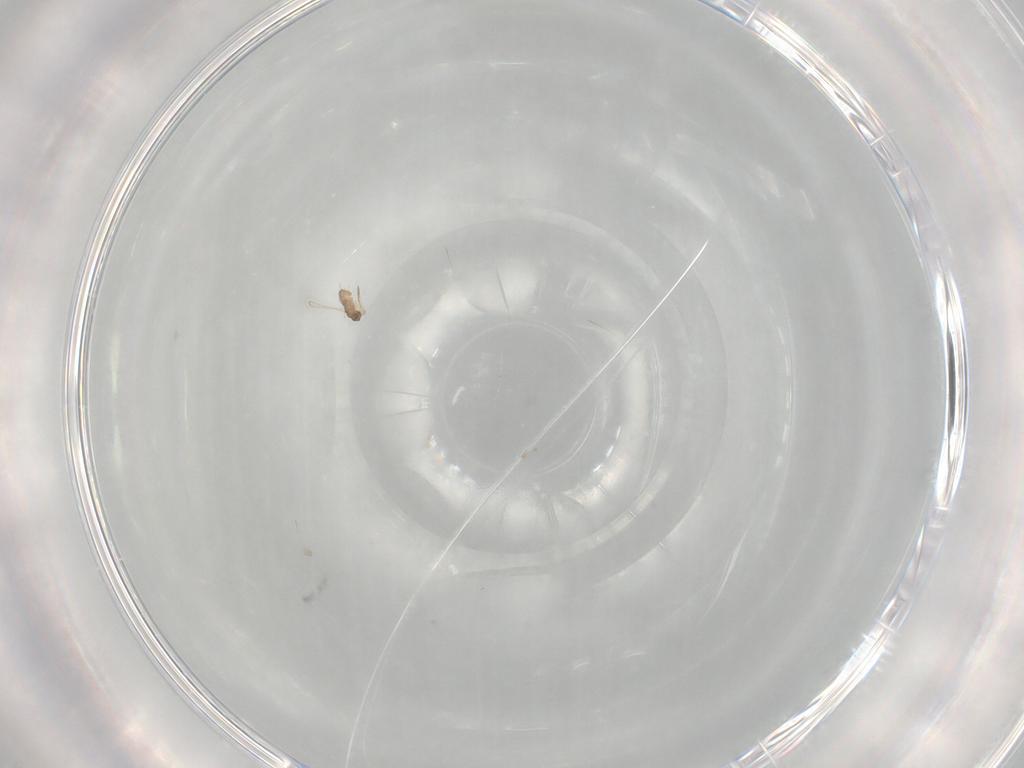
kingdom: Animalia
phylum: Arthropoda
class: Insecta
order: Hymenoptera
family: Mymaridae
